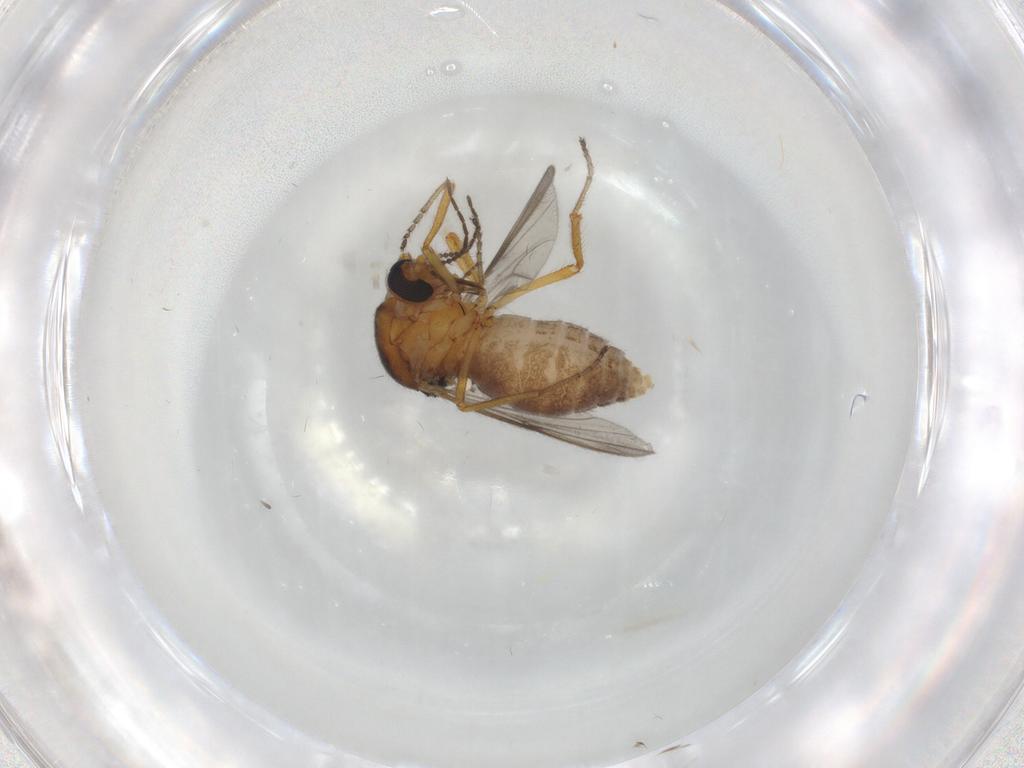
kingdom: Animalia
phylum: Arthropoda
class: Insecta
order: Diptera
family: Ceratopogonidae
